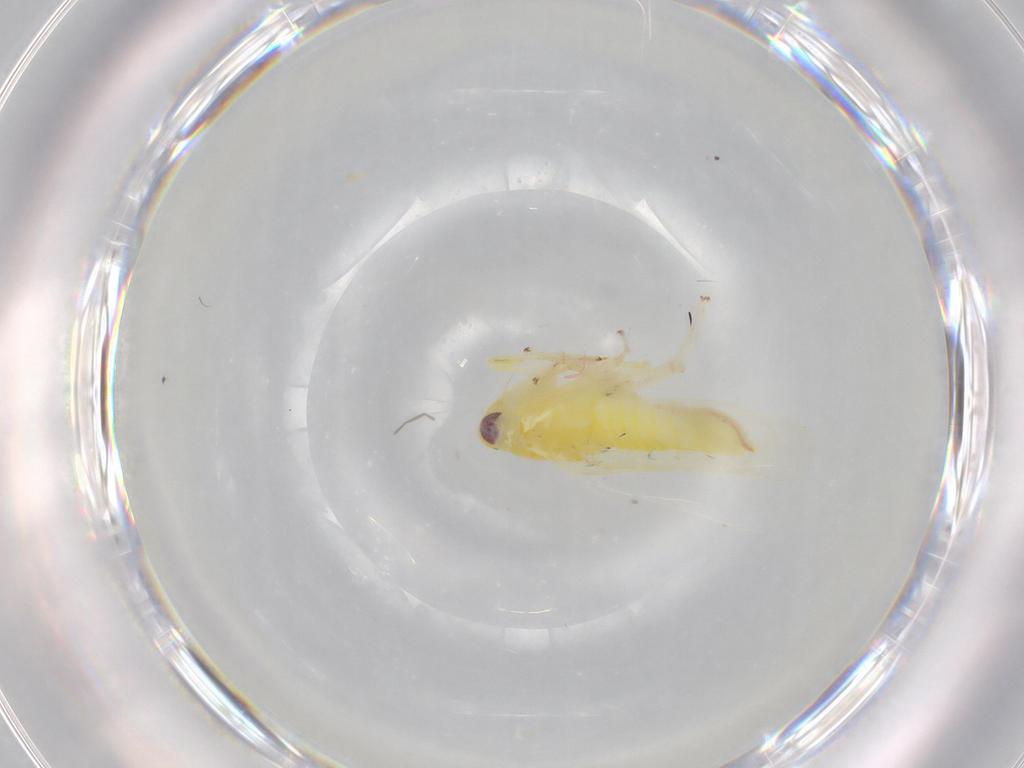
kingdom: Animalia
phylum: Arthropoda
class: Insecta
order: Hemiptera
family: Cicadellidae
